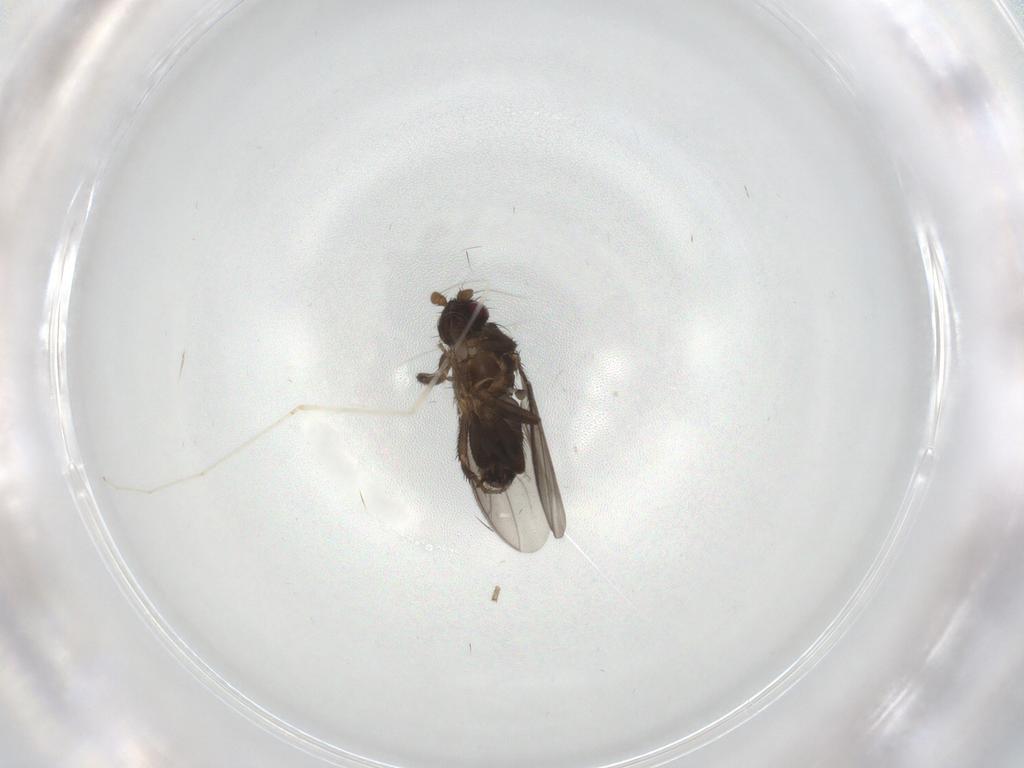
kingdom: Animalia
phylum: Arthropoda
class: Insecta
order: Diptera
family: Sphaeroceridae
